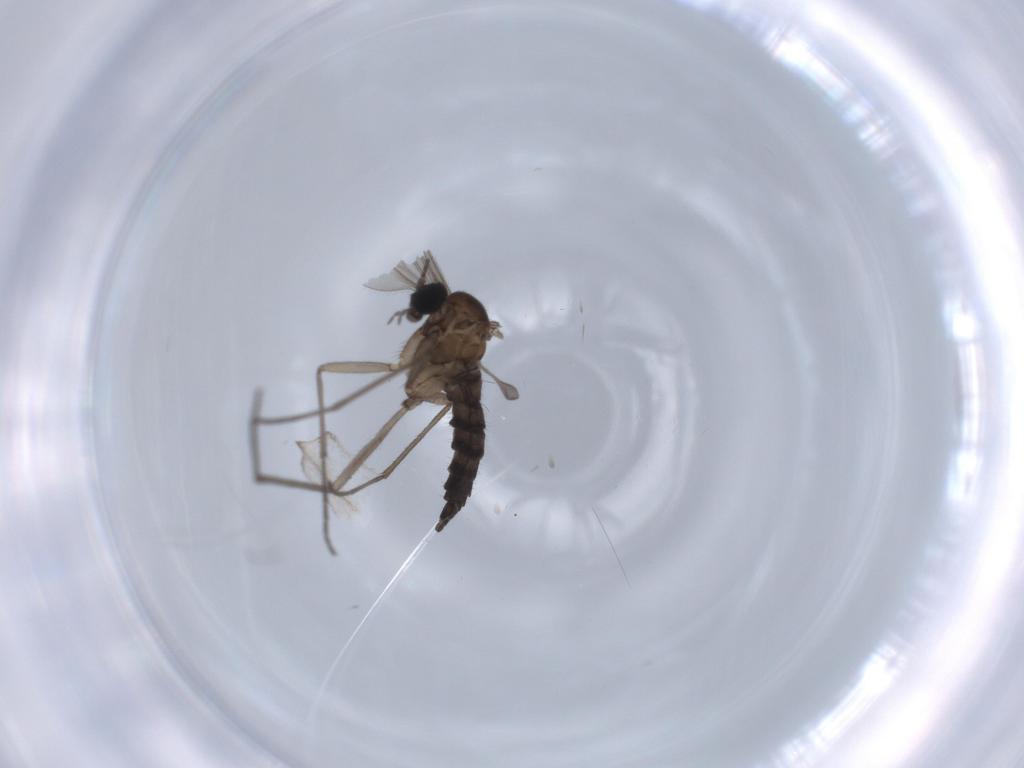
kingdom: Animalia
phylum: Arthropoda
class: Insecta
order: Diptera
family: Sciaridae
